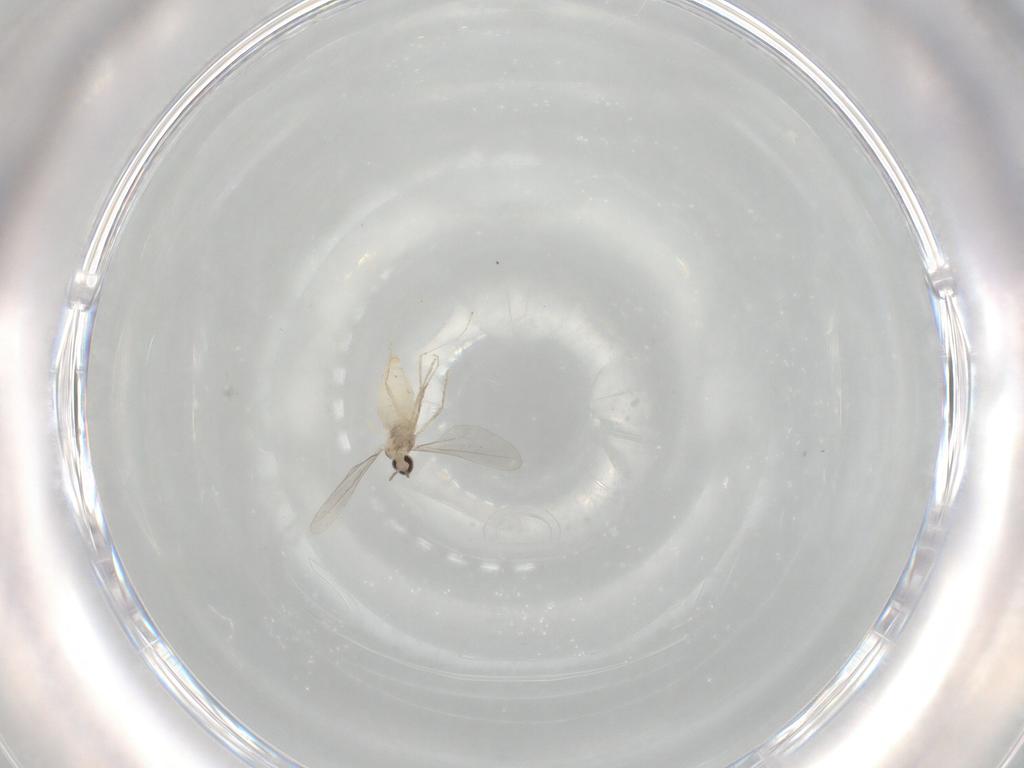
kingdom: Animalia
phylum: Arthropoda
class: Insecta
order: Diptera
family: Cecidomyiidae
